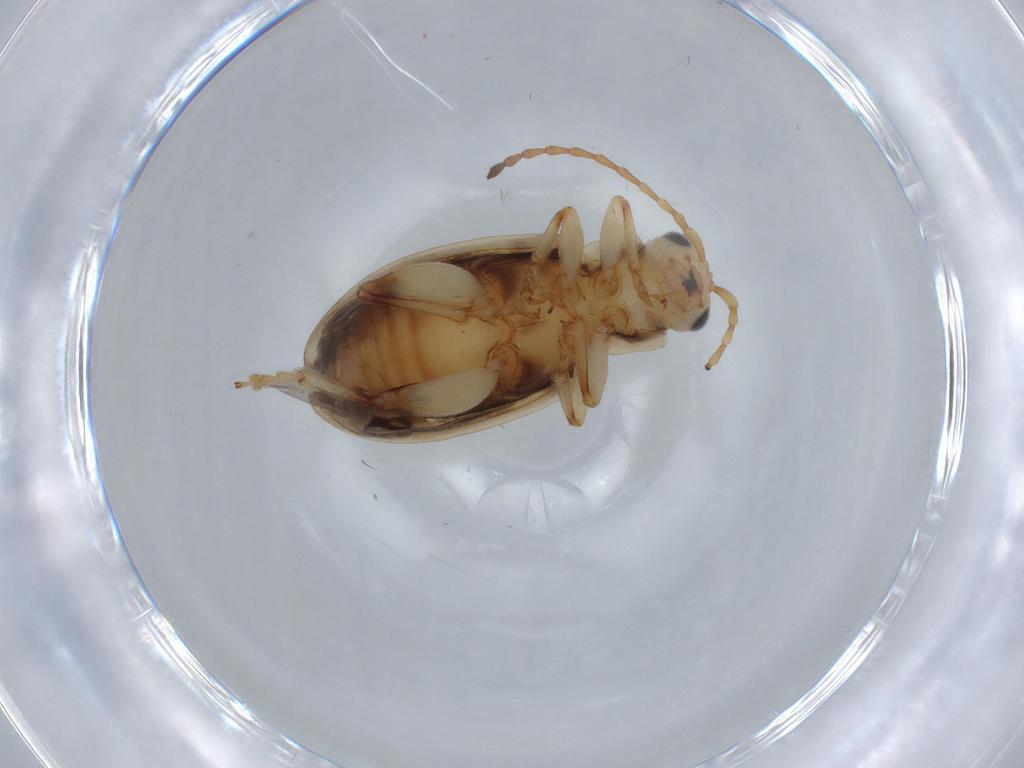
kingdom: Animalia
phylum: Arthropoda
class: Insecta
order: Coleoptera
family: Chrysomelidae
